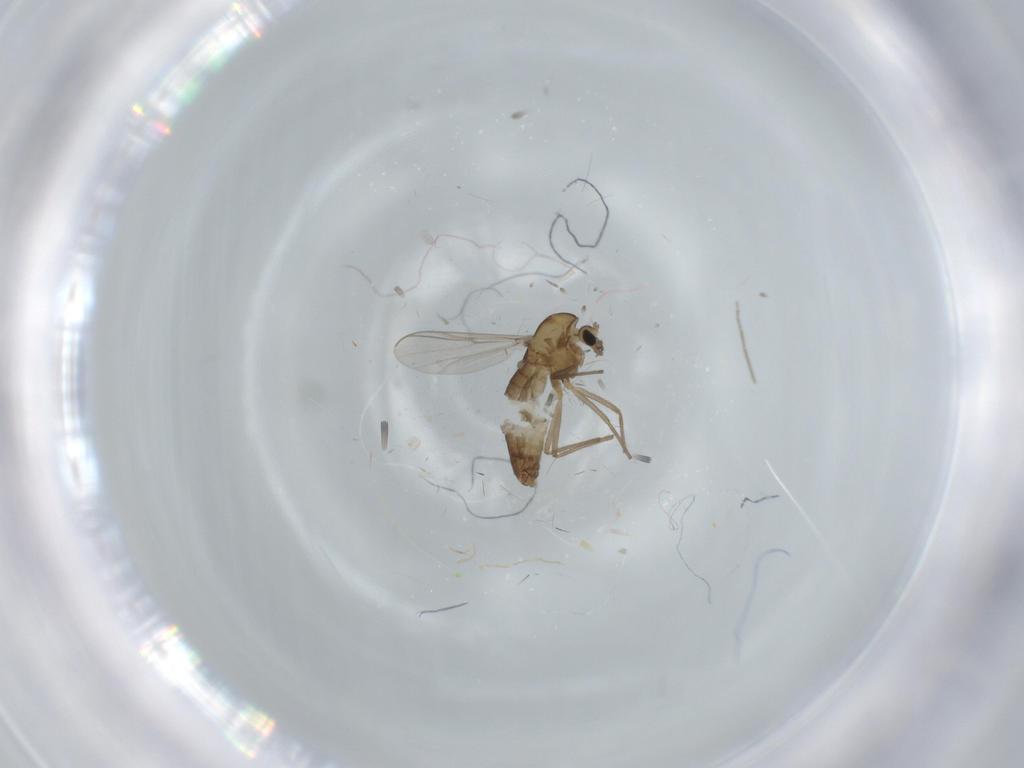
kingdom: Animalia
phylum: Arthropoda
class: Insecta
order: Diptera
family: Chironomidae
